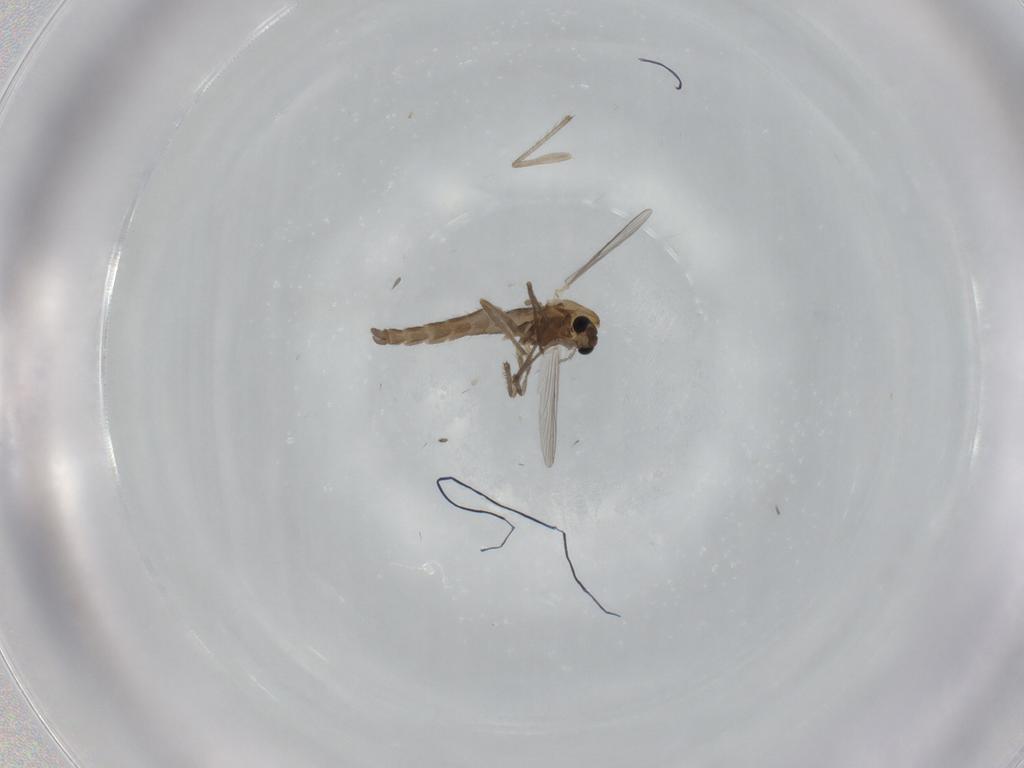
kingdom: Animalia
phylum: Arthropoda
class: Insecta
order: Diptera
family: Chironomidae
